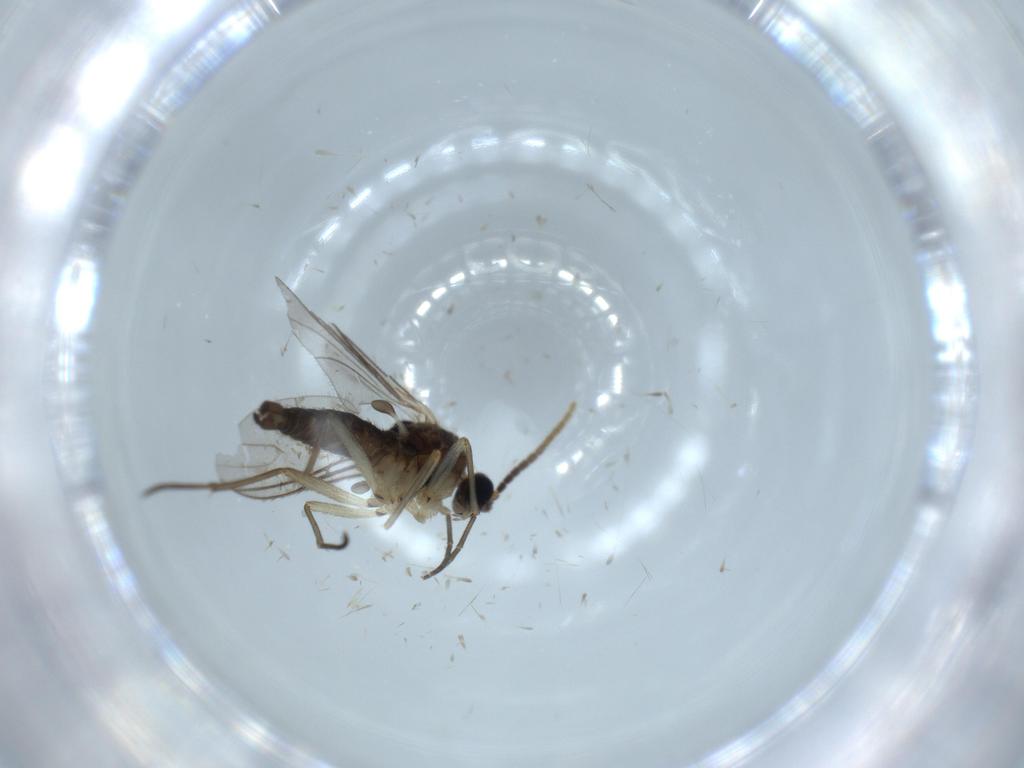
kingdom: Animalia
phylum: Arthropoda
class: Insecta
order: Diptera
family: Sciaridae
